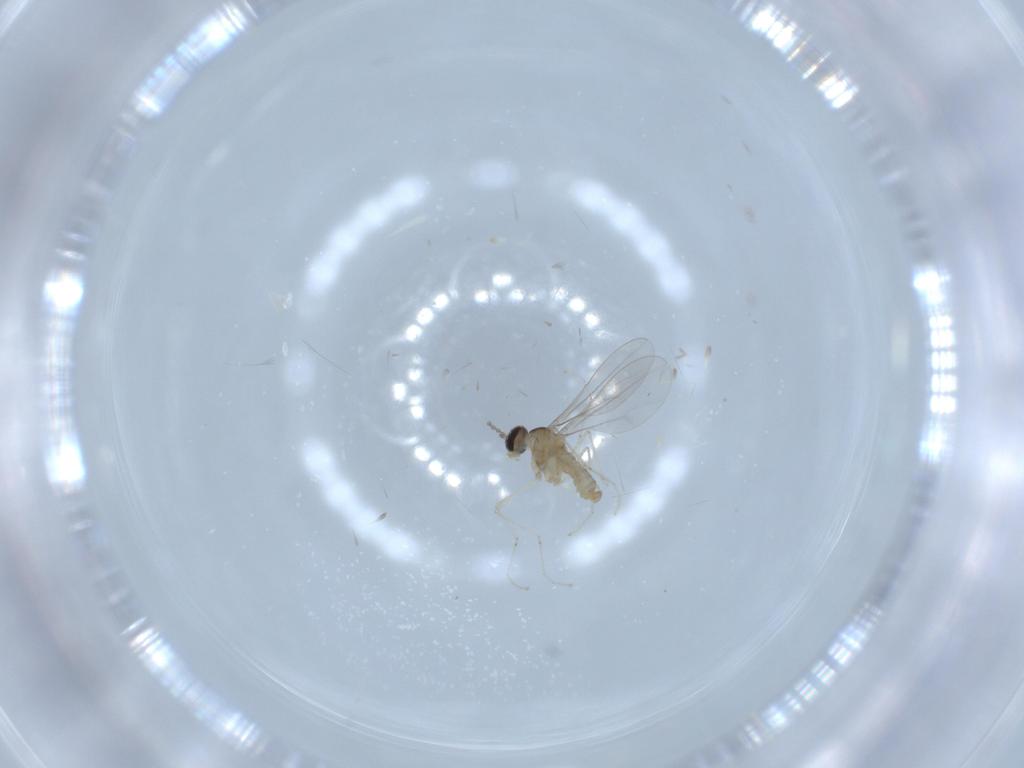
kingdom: Animalia
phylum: Arthropoda
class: Insecta
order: Diptera
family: Cecidomyiidae
